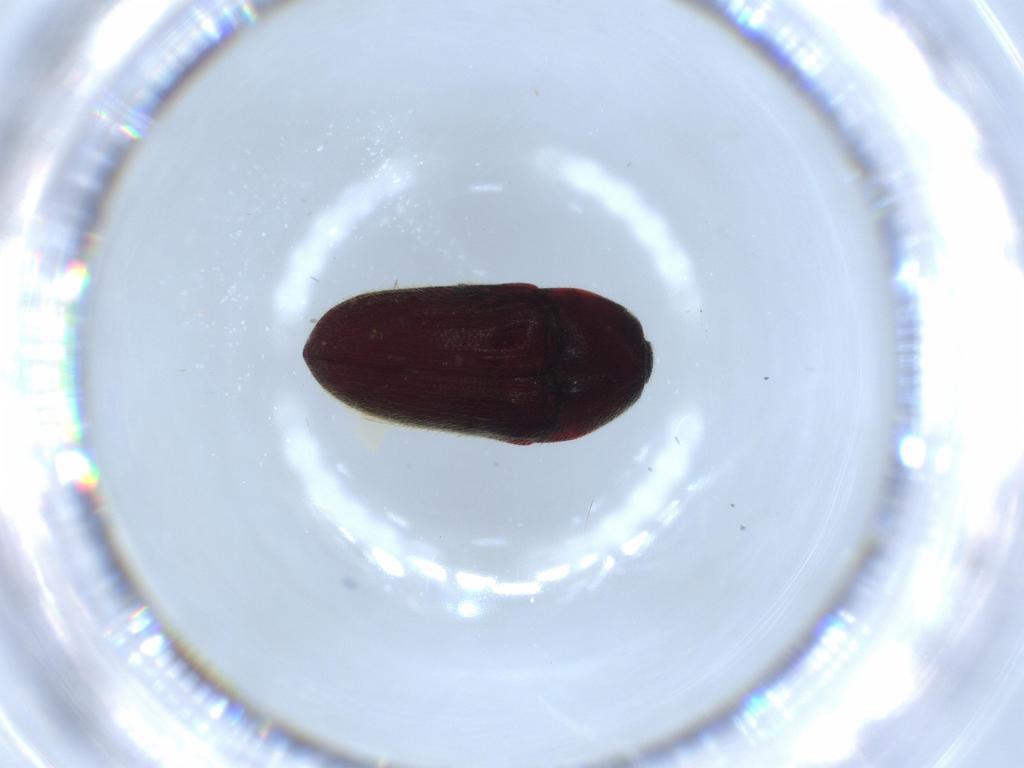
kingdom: Animalia
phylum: Arthropoda
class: Insecta
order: Coleoptera
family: Throscidae
